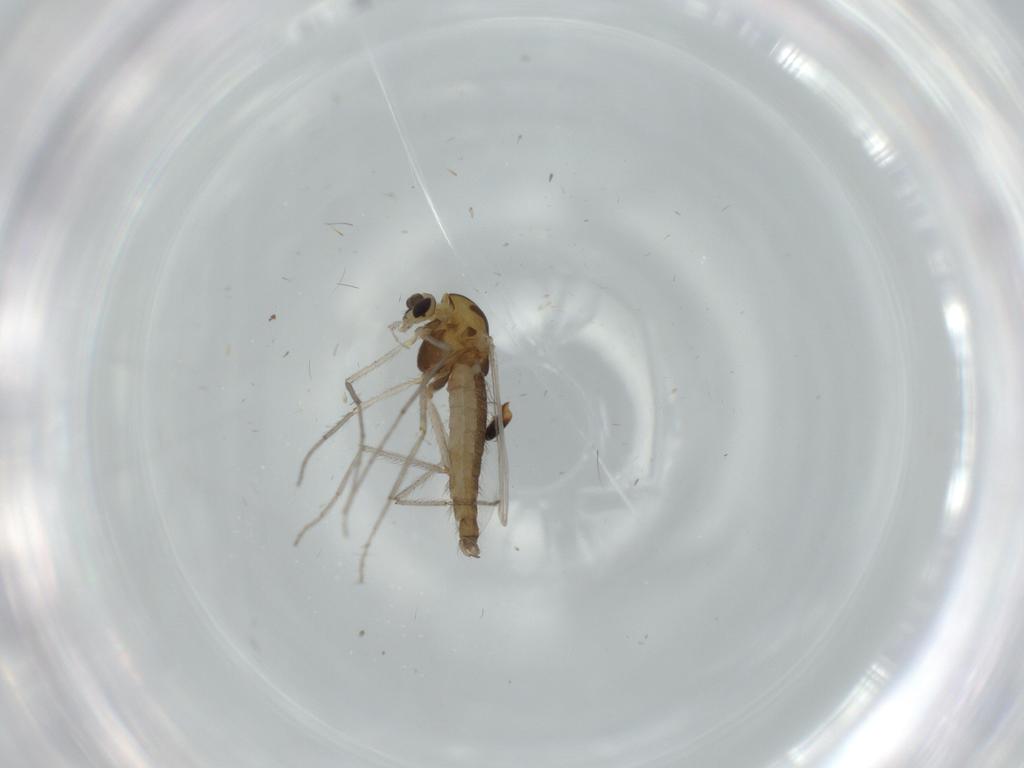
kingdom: Animalia
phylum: Arthropoda
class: Insecta
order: Diptera
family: Chironomidae
